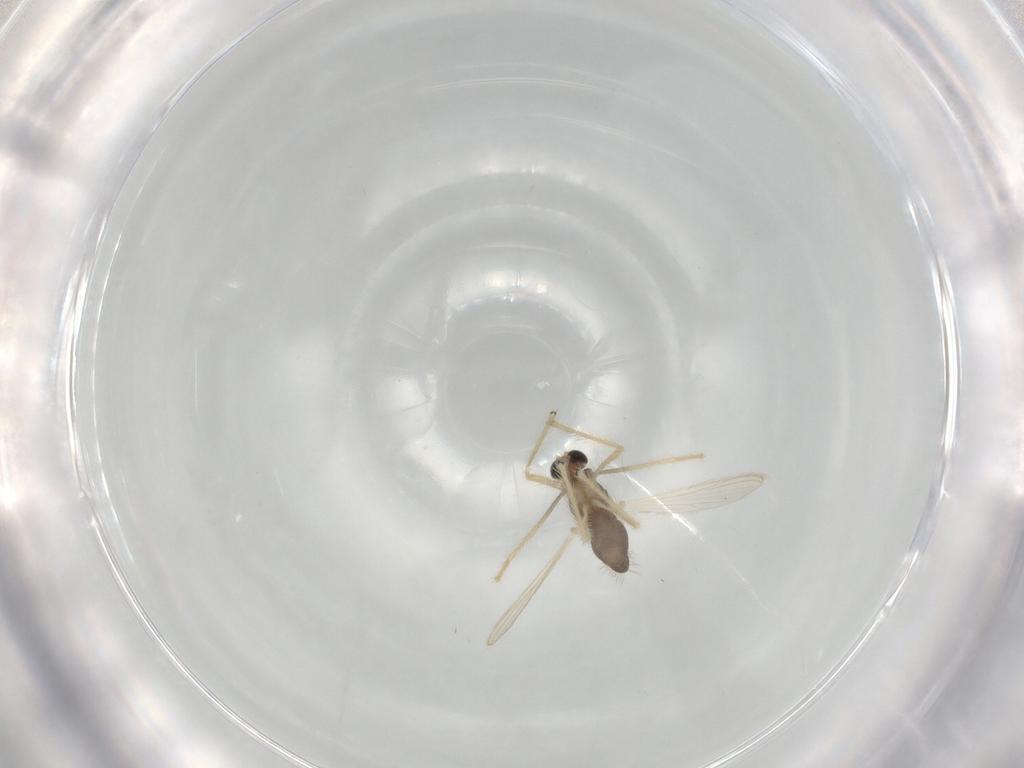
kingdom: Animalia
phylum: Arthropoda
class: Insecta
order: Diptera
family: Chironomidae
